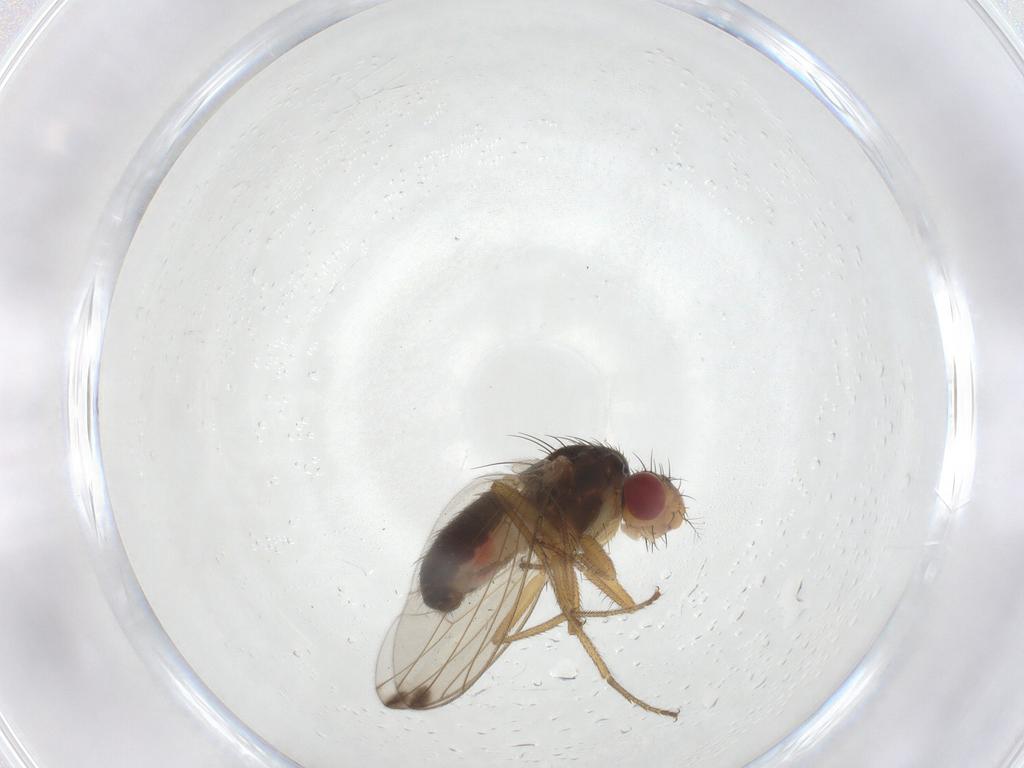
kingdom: Animalia
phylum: Arthropoda
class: Insecta
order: Diptera
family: Drosophilidae
